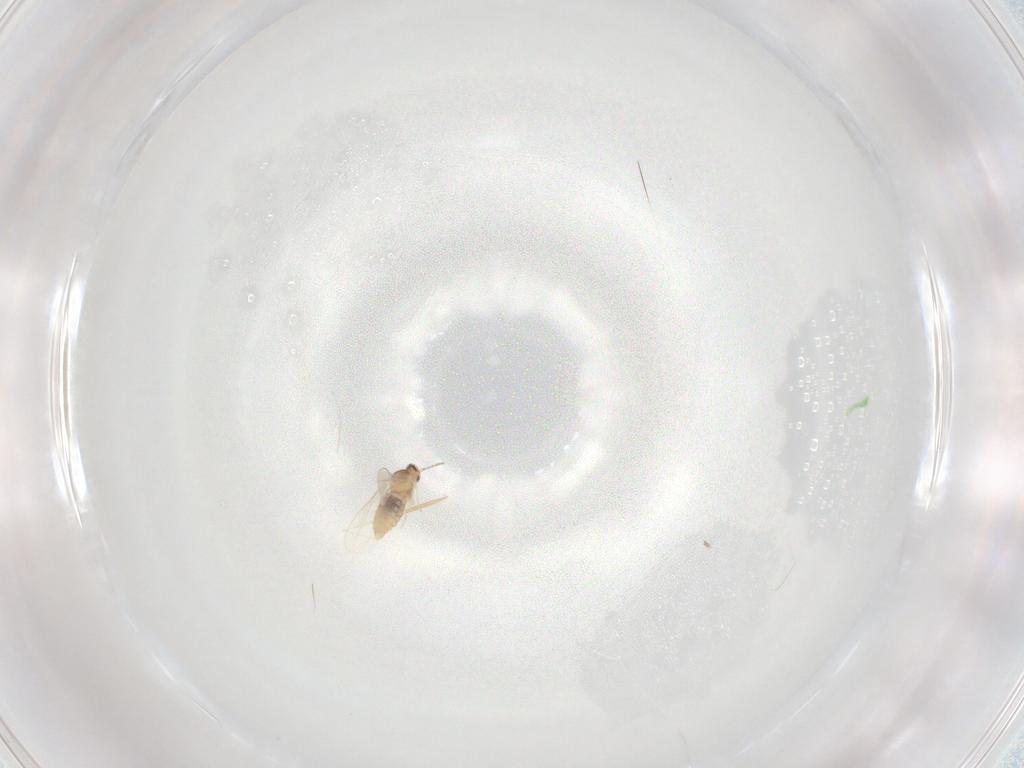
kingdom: Animalia
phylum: Arthropoda
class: Insecta
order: Diptera
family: Cecidomyiidae
